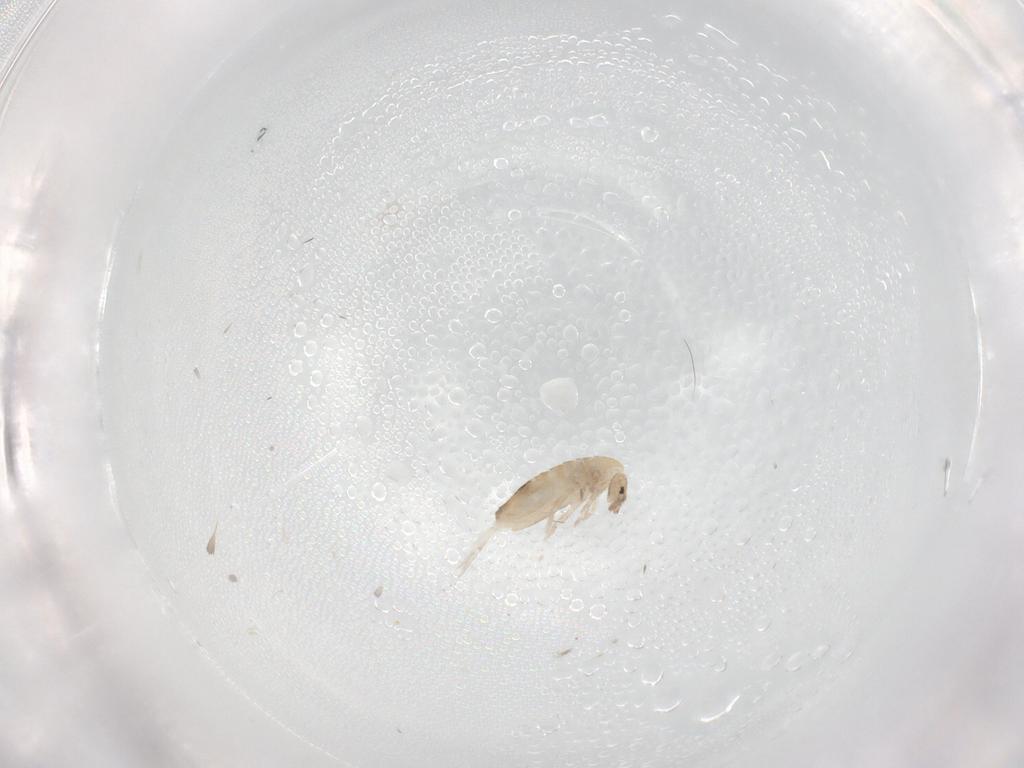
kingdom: Animalia
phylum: Arthropoda
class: Collembola
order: Entomobryomorpha
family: Entomobryidae
